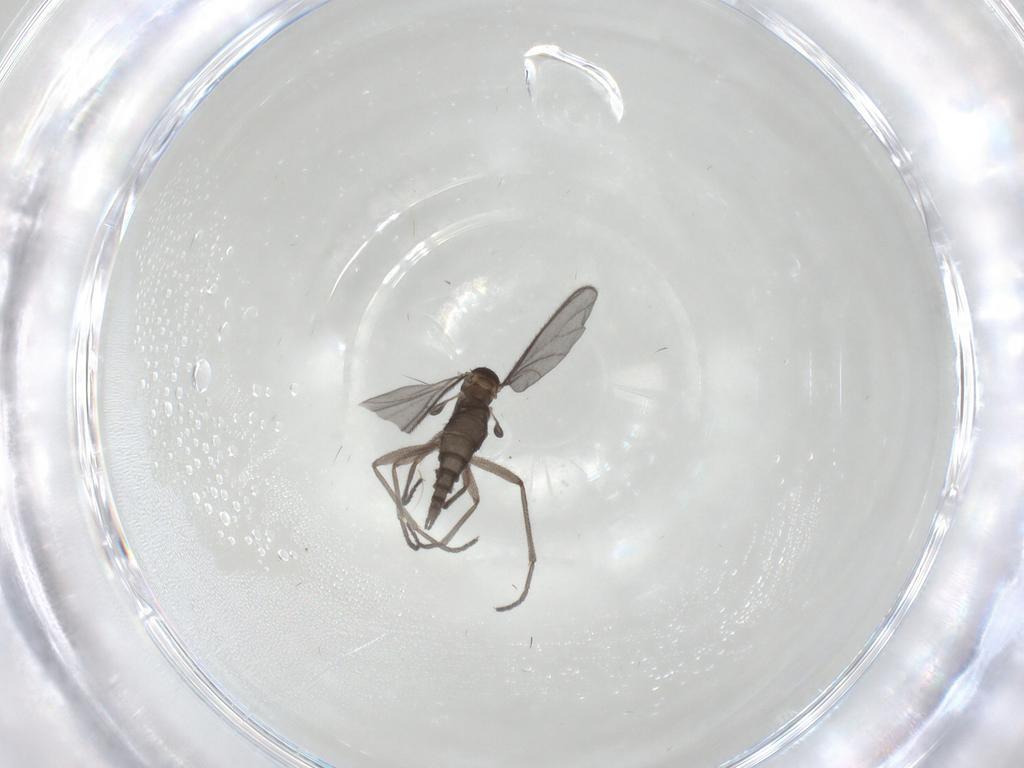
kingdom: Animalia
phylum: Arthropoda
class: Insecta
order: Diptera
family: Sciaridae
